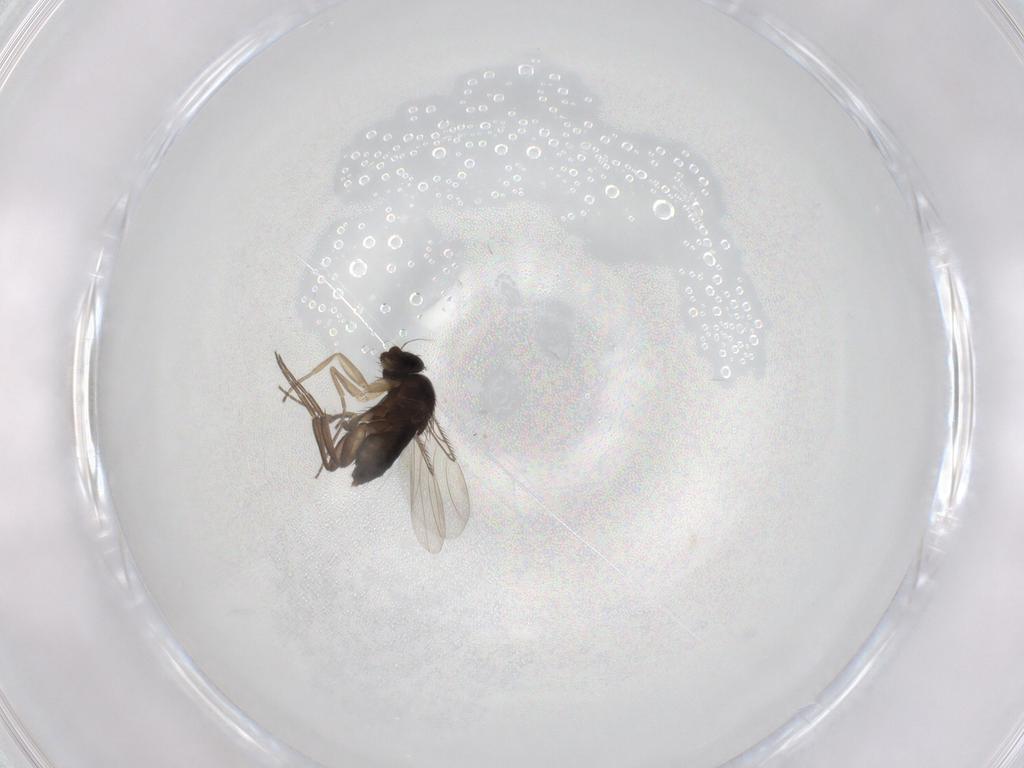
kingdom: Animalia
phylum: Arthropoda
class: Insecta
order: Diptera
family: Phoridae
